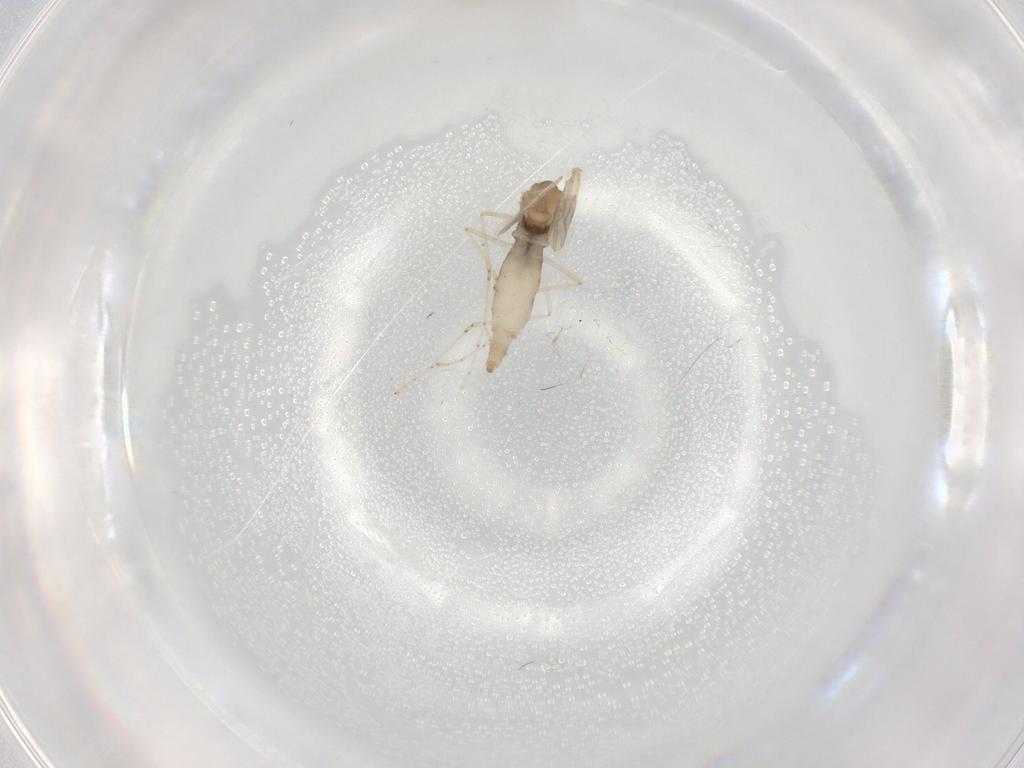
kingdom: Animalia
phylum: Arthropoda
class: Insecta
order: Diptera
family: Cecidomyiidae
